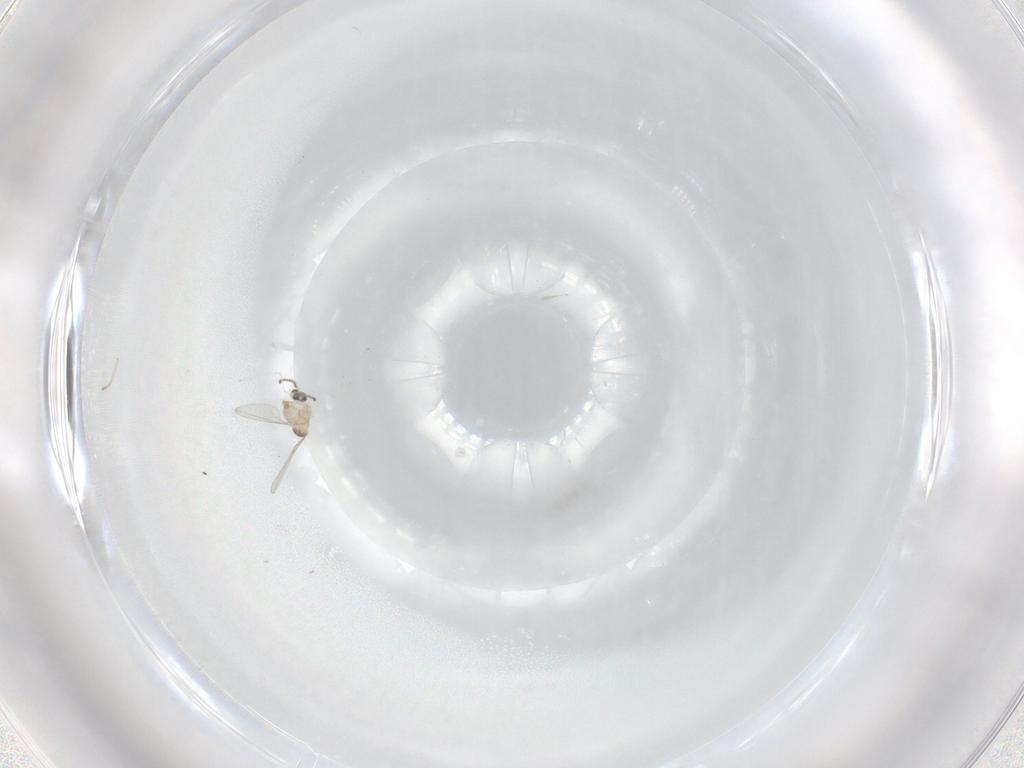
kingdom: Animalia
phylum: Arthropoda
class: Insecta
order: Diptera
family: Cecidomyiidae
